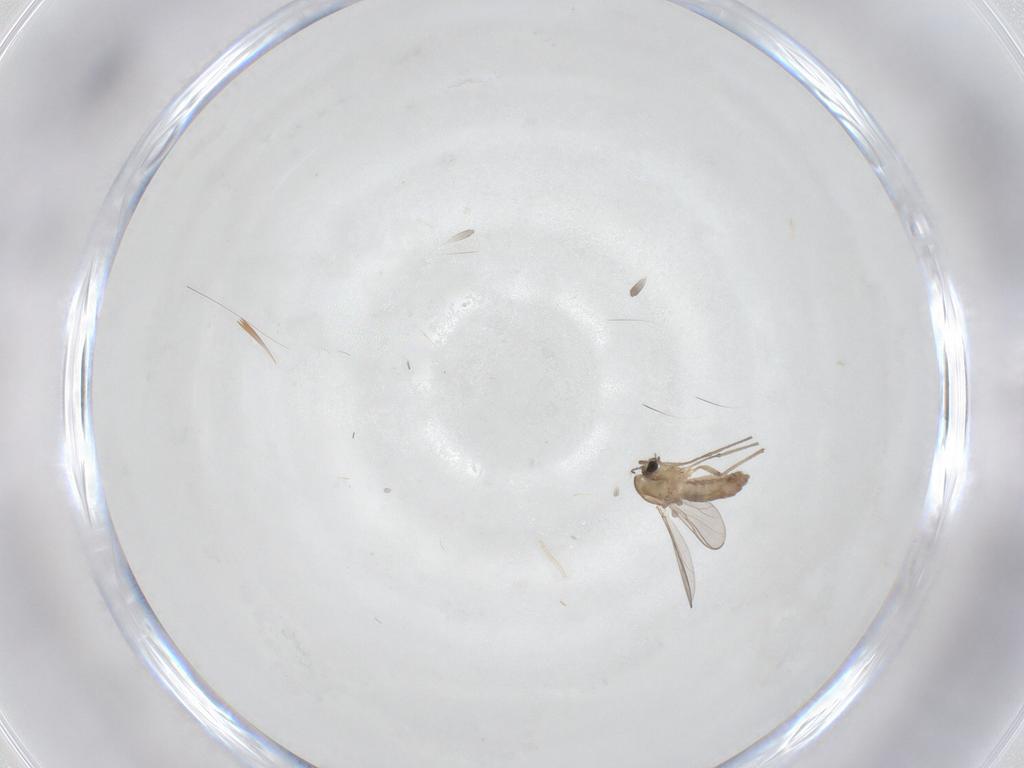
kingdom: Animalia
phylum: Arthropoda
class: Insecta
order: Diptera
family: Chironomidae
